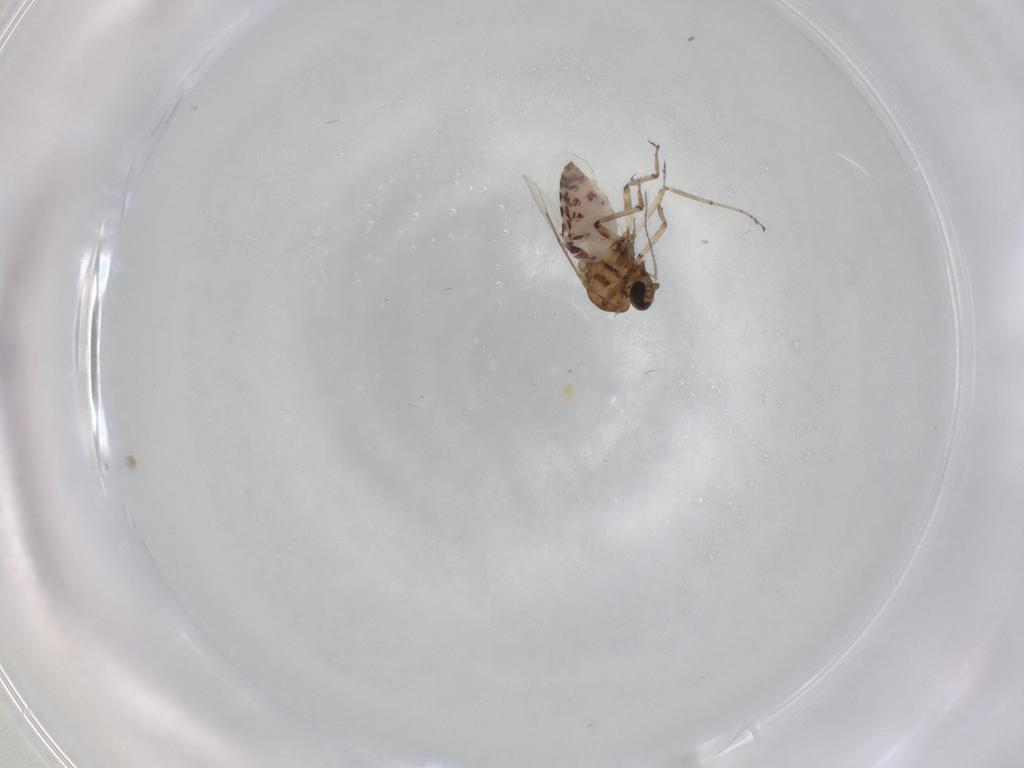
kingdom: Animalia
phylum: Arthropoda
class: Insecta
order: Diptera
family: Ceratopogonidae
